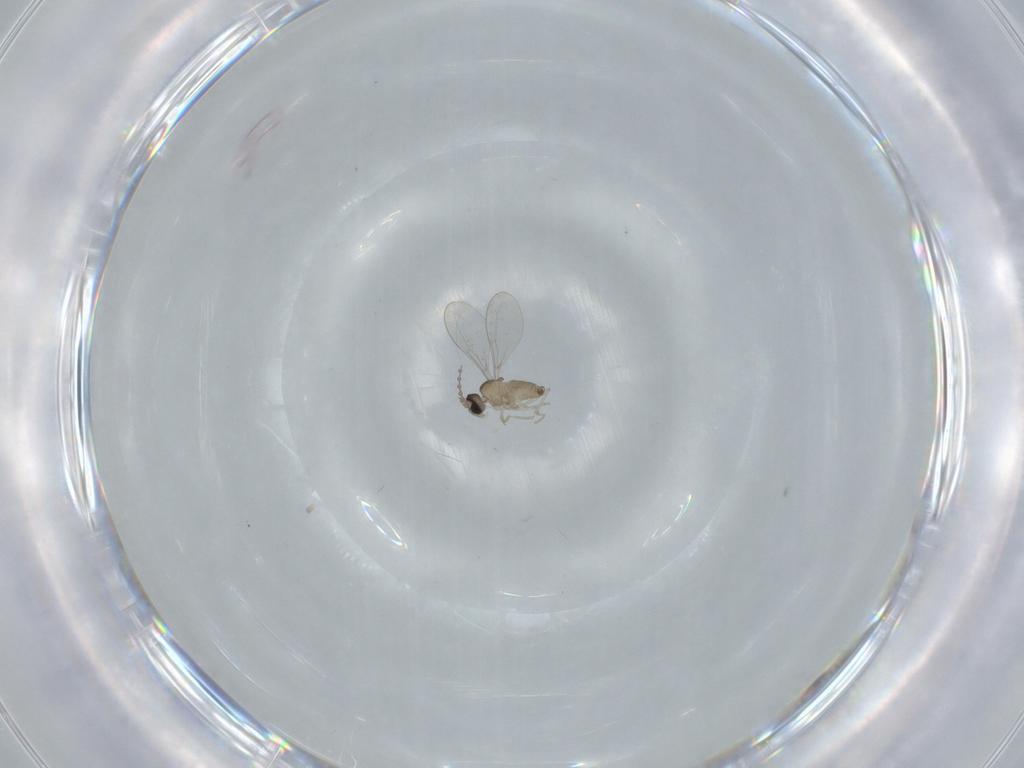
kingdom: Animalia
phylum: Arthropoda
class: Insecta
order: Diptera
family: Cecidomyiidae
